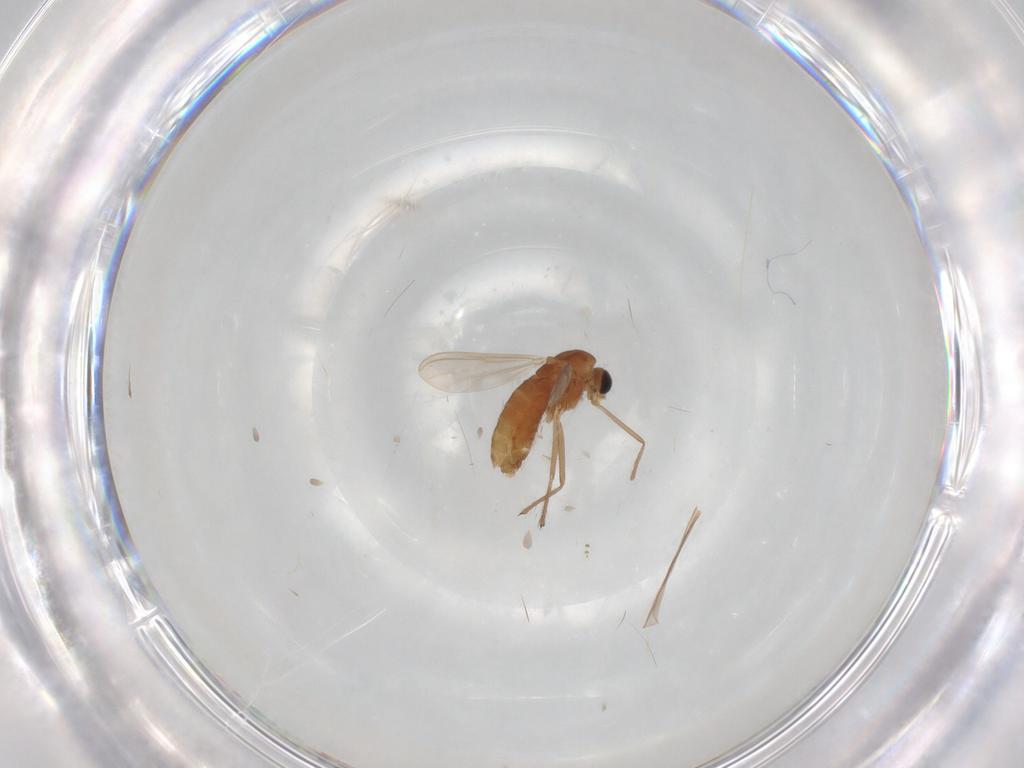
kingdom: Animalia
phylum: Arthropoda
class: Insecta
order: Diptera
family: Chironomidae
